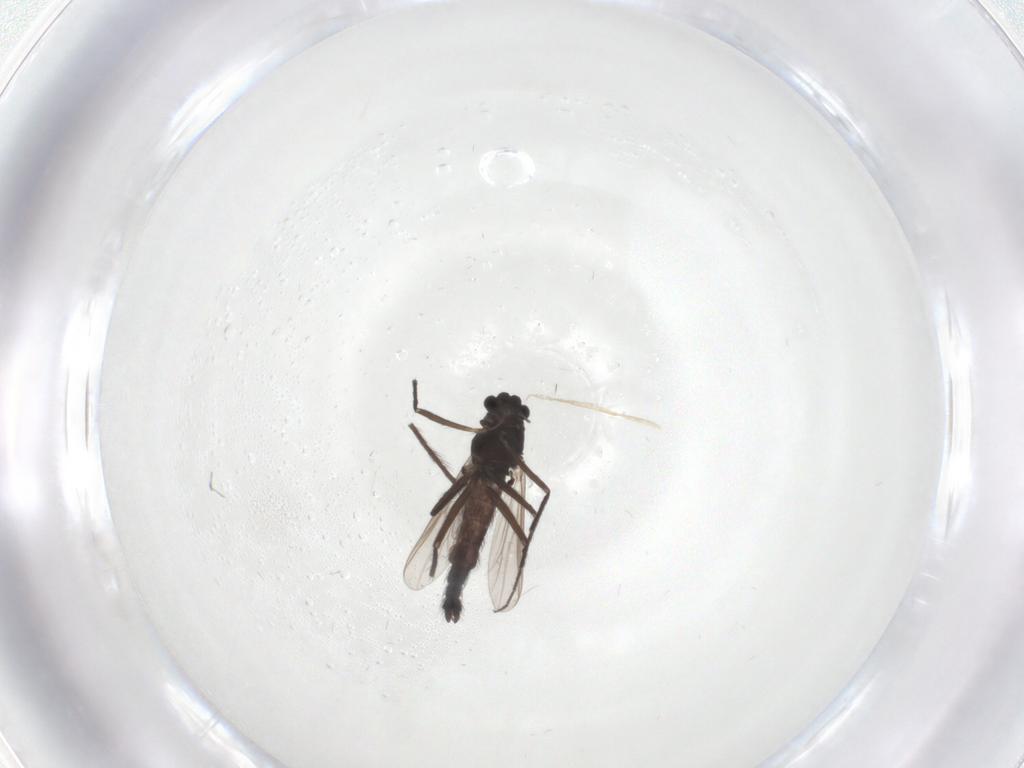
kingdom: Animalia
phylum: Arthropoda
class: Insecta
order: Diptera
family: Chironomidae
